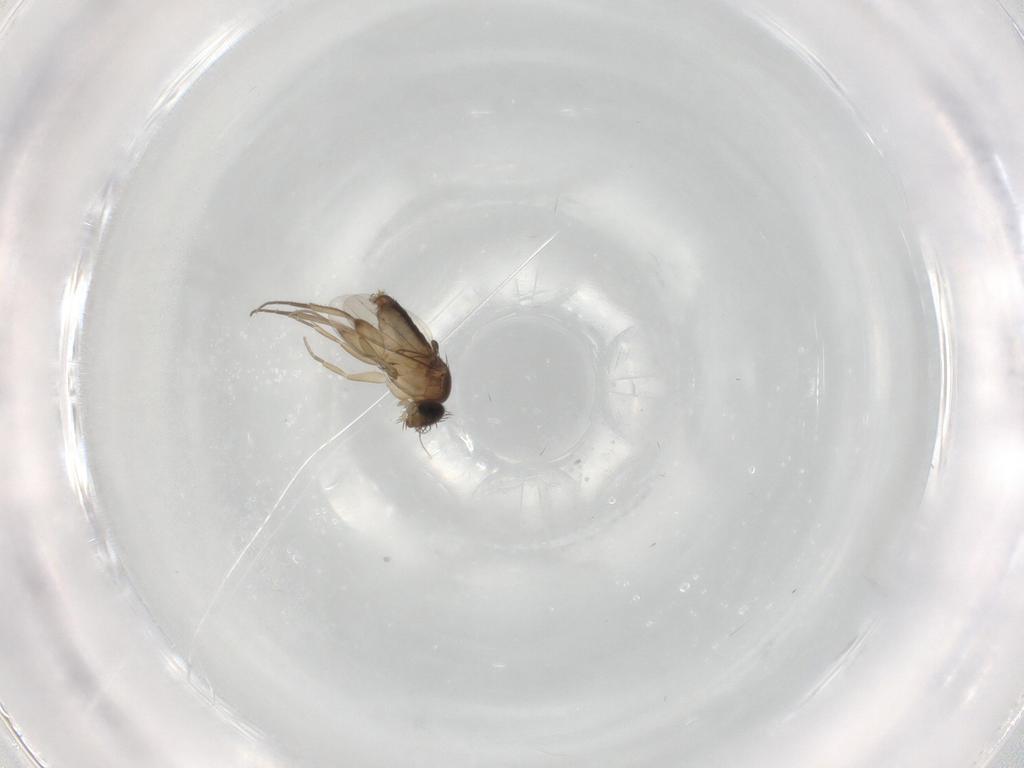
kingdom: Animalia
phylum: Arthropoda
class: Insecta
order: Diptera
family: Phoridae
